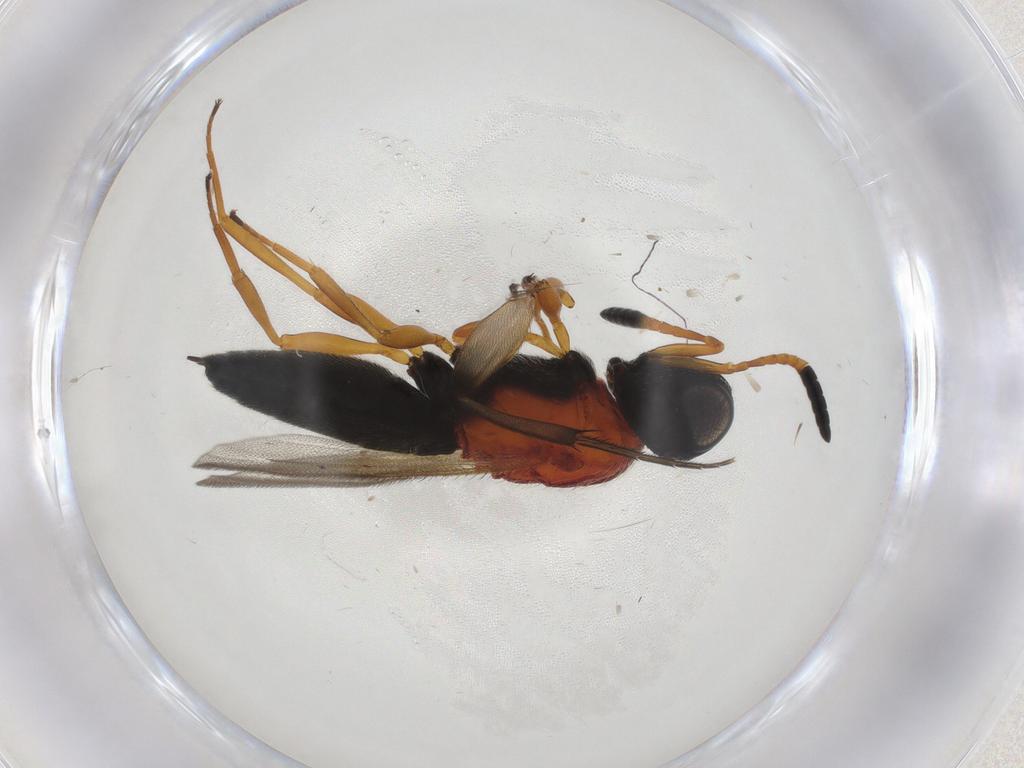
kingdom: Animalia
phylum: Arthropoda
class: Insecta
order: Hymenoptera
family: Scelionidae
